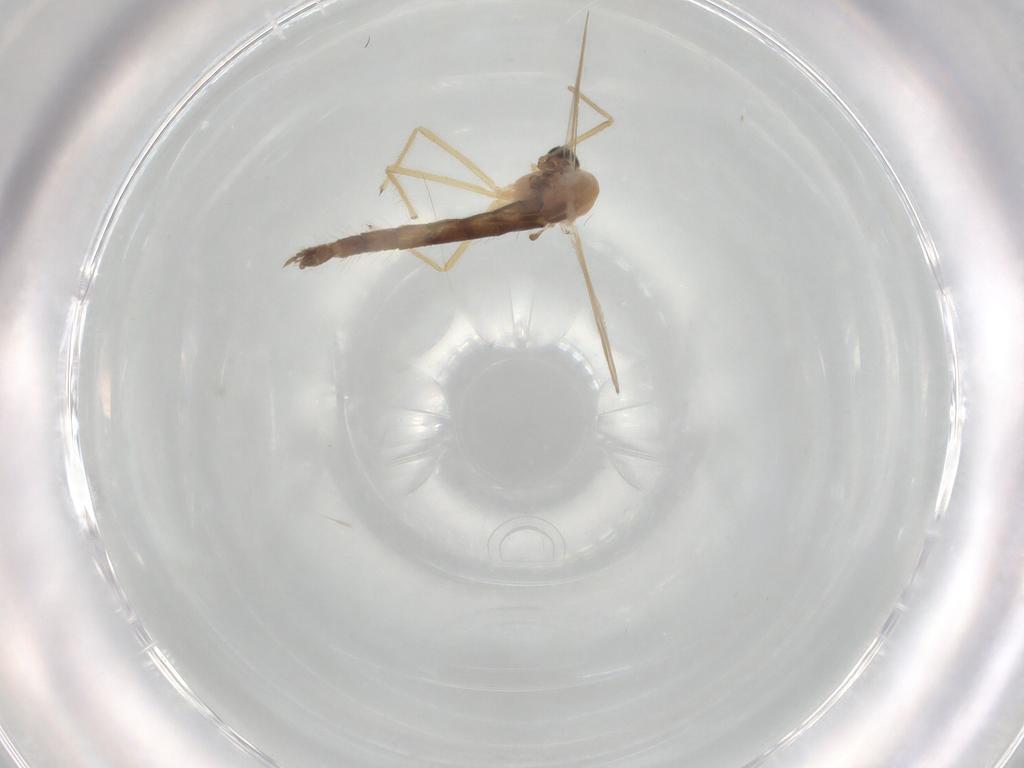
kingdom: Animalia
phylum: Arthropoda
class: Insecta
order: Diptera
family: Chironomidae
